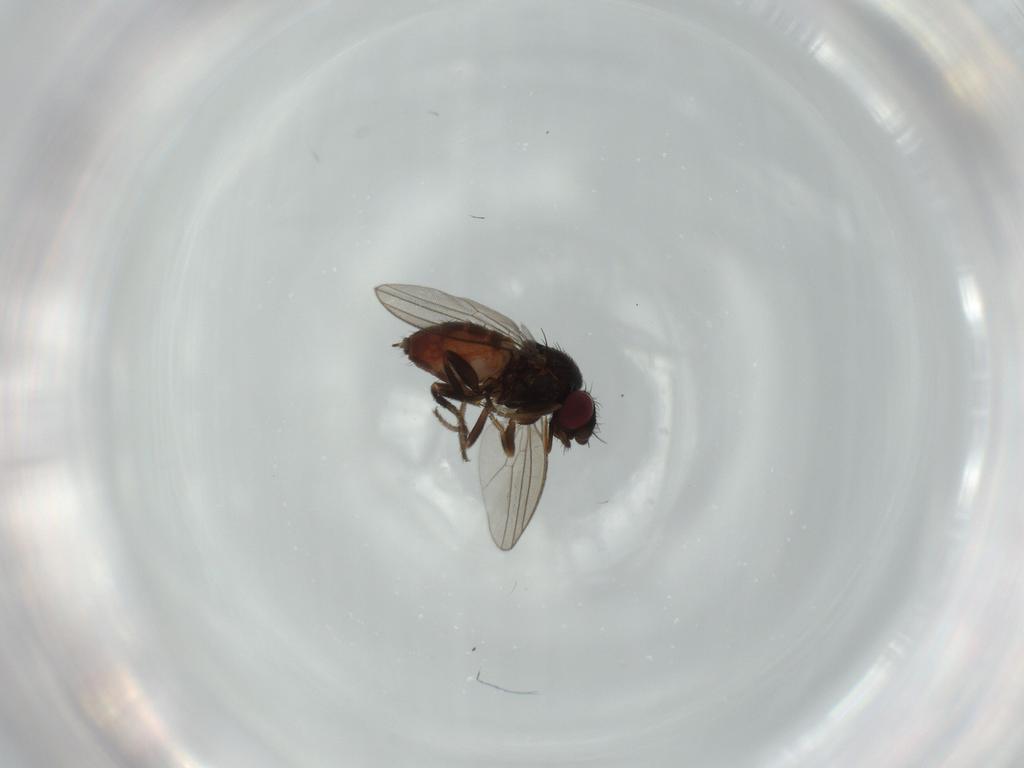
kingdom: Animalia
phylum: Arthropoda
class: Insecta
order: Diptera
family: Milichiidae
